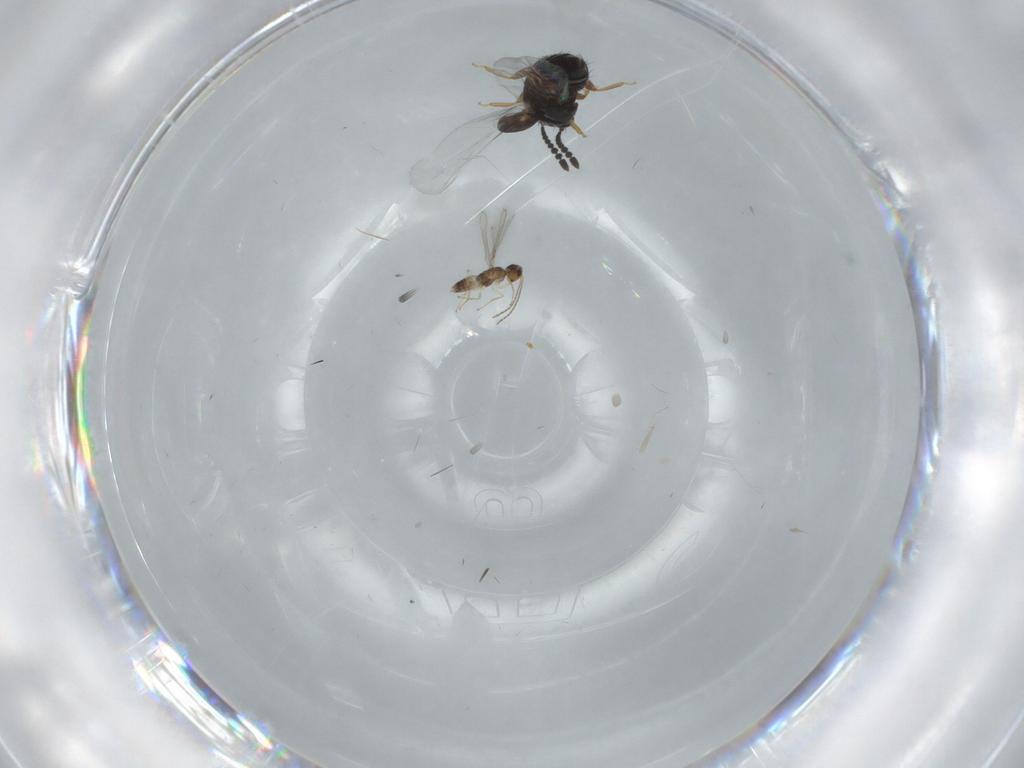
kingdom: Animalia
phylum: Arthropoda
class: Insecta
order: Coleoptera
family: Staphylinidae
